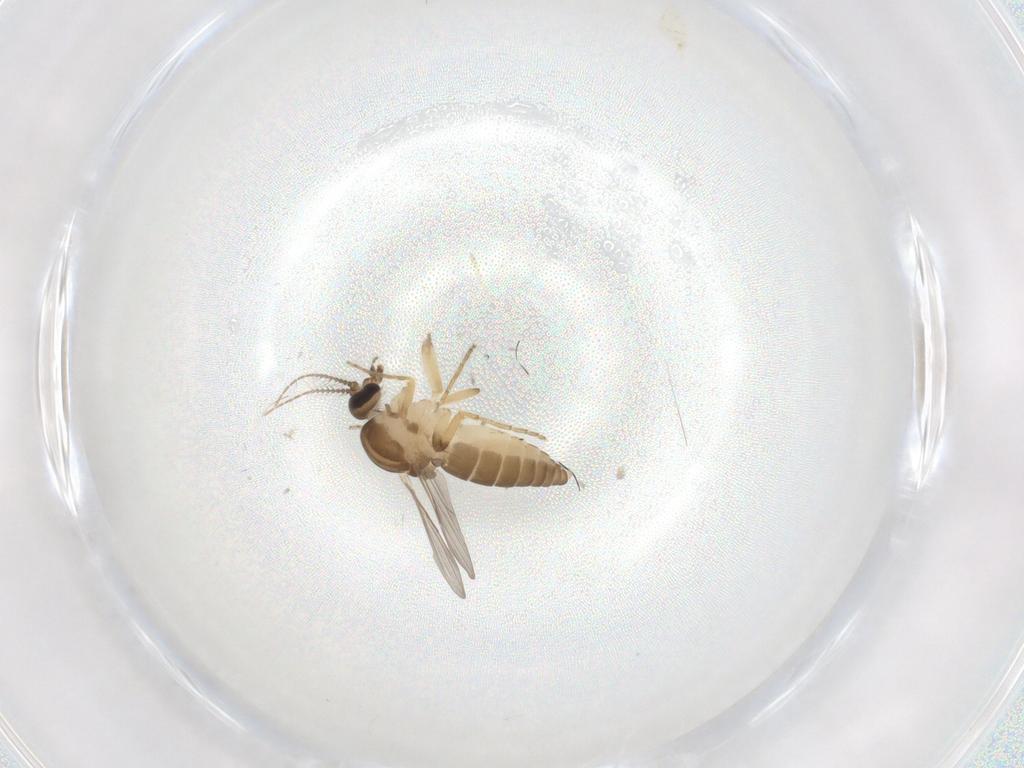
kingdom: Animalia
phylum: Arthropoda
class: Insecta
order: Diptera
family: Ceratopogonidae
